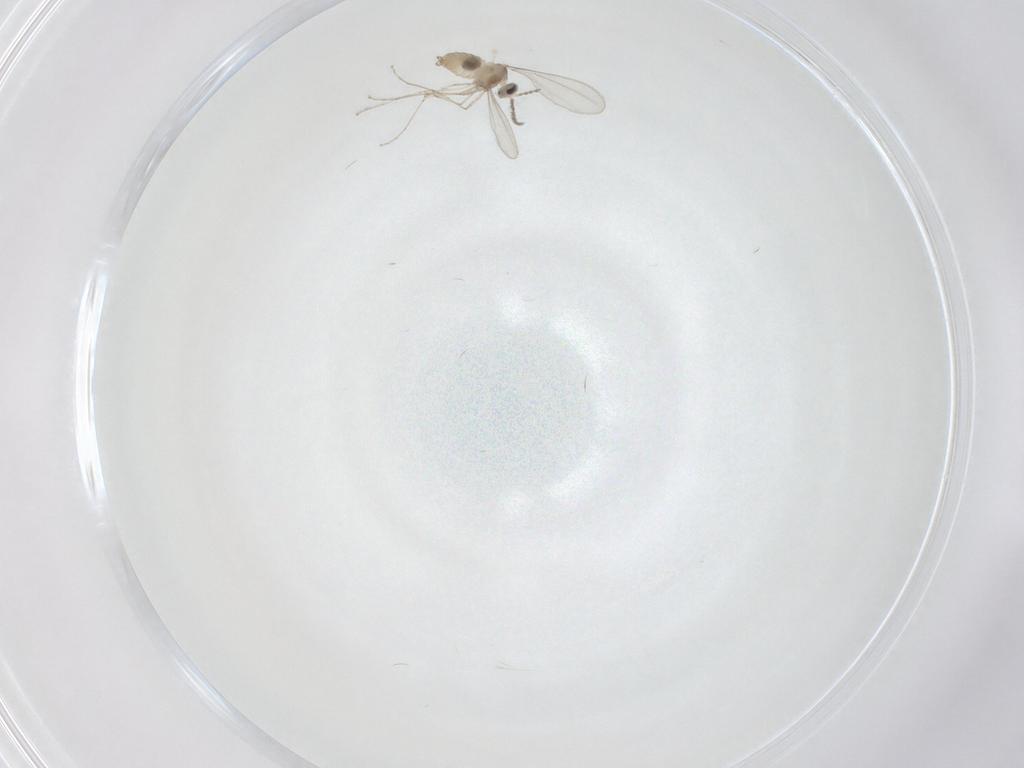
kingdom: Animalia
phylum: Arthropoda
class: Insecta
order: Diptera
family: Cecidomyiidae
